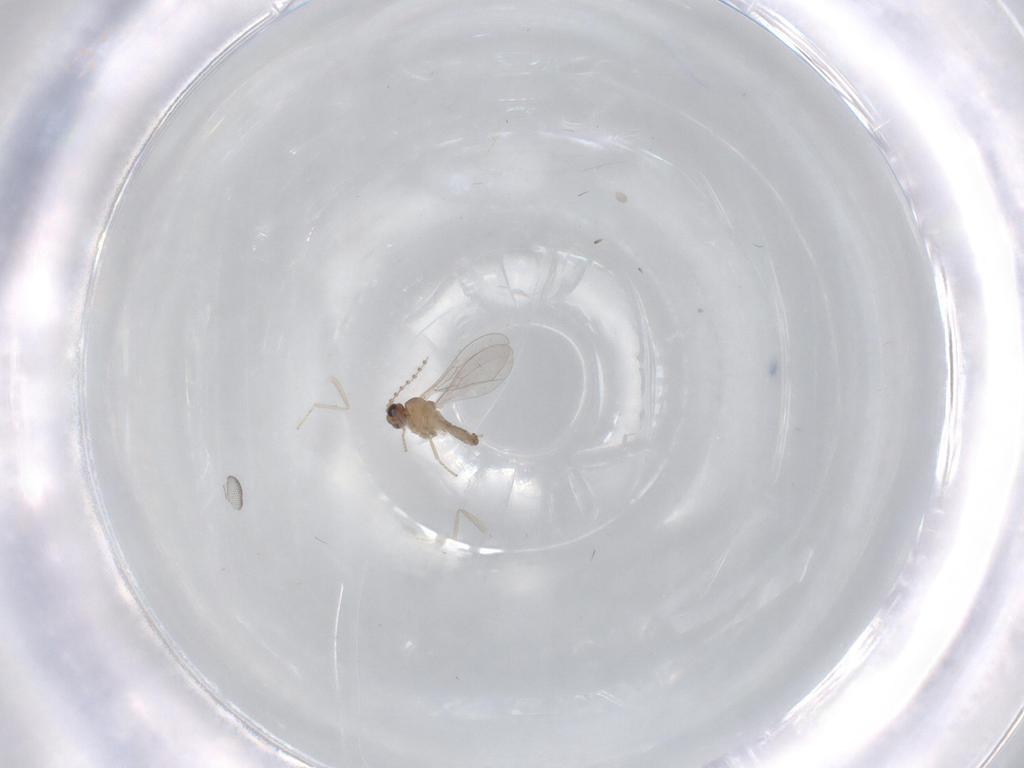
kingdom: Animalia
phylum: Arthropoda
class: Insecta
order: Diptera
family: Cecidomyiidae
